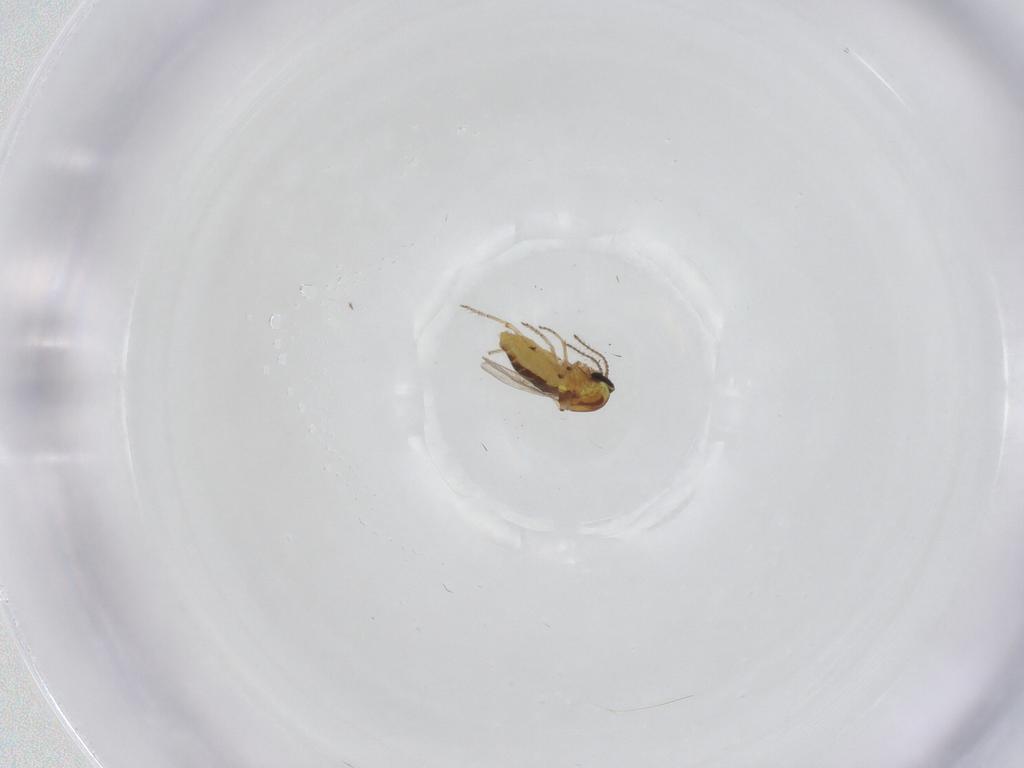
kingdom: Animalia
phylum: Arthropoda
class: Insecta
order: Diptera
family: Ceratopogonidae
